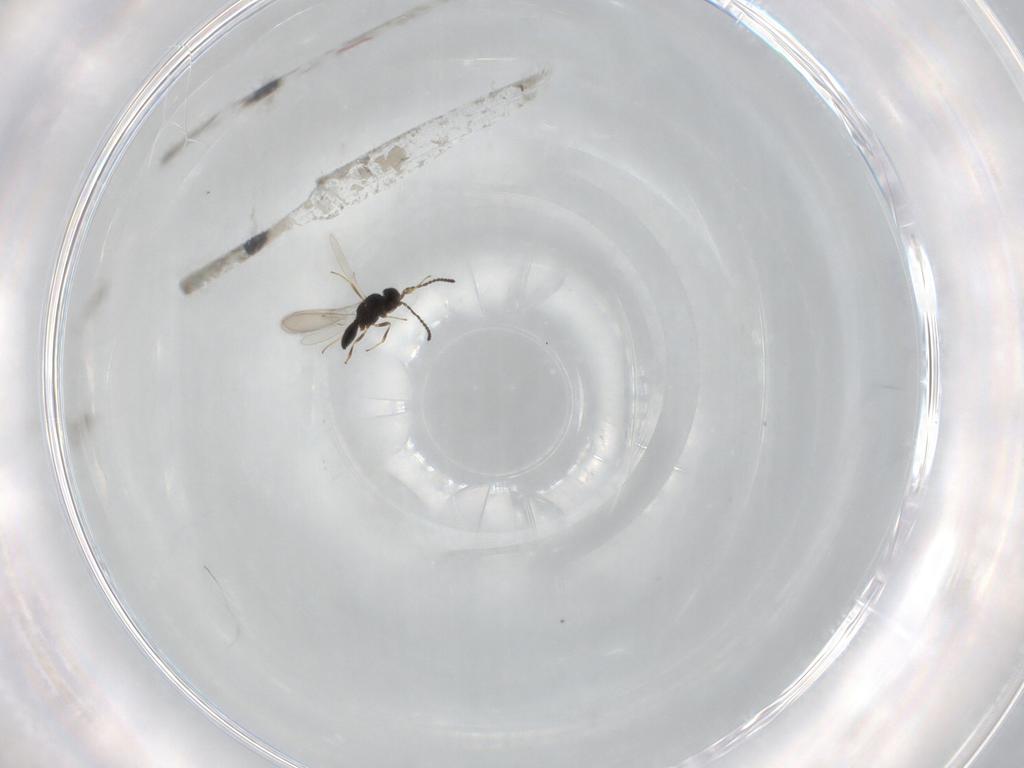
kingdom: Animalia
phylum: Arthropoda
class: Insecta
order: Hymenoptera
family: Scelionidae
